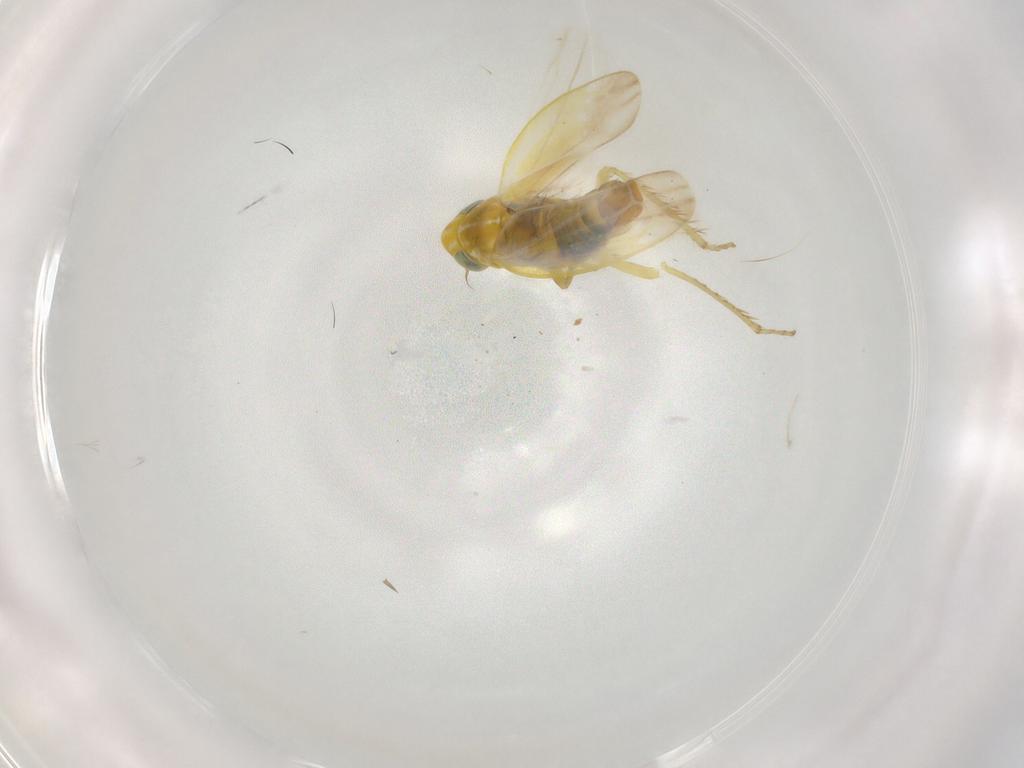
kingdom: Animalia
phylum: Arthropoda
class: Insecta
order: Hemiptera
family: Cicadellidae
